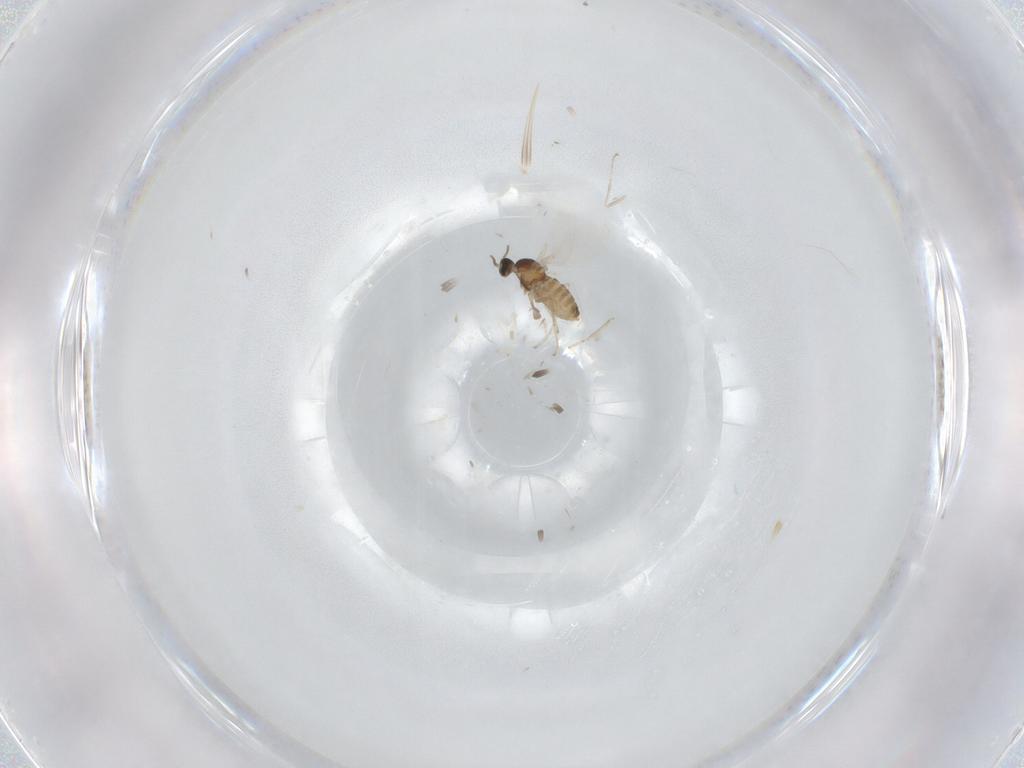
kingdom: Animalia
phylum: Arthropoda
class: Insecta
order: Diptera
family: Cecidomyiidae
